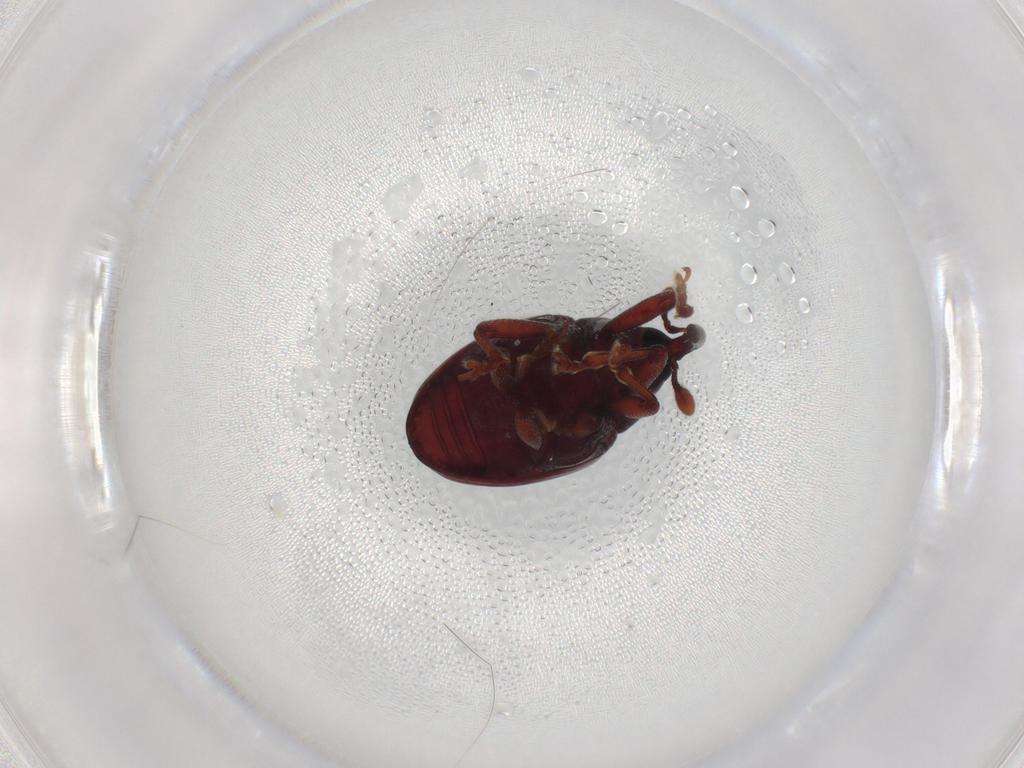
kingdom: Animalia
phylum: Arthropoda
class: Insecta
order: Coleoptera
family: Curculionidae
